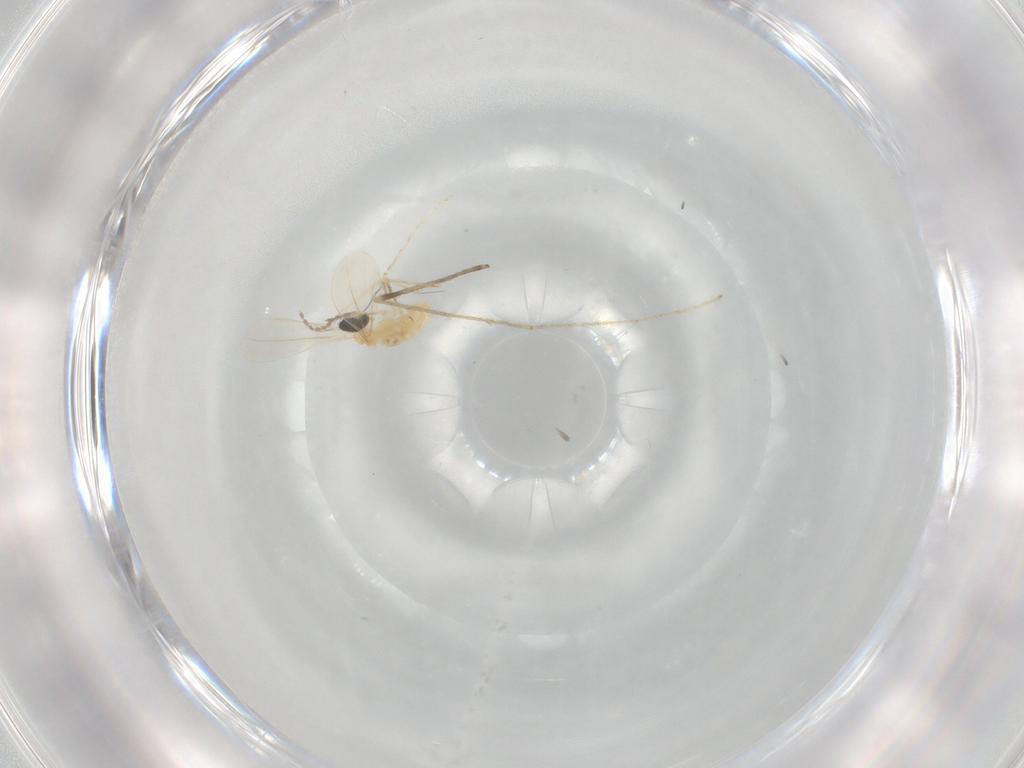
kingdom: Animalia
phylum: Arthropoda
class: Insecta
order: Diptera
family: Cecidomyiidae
